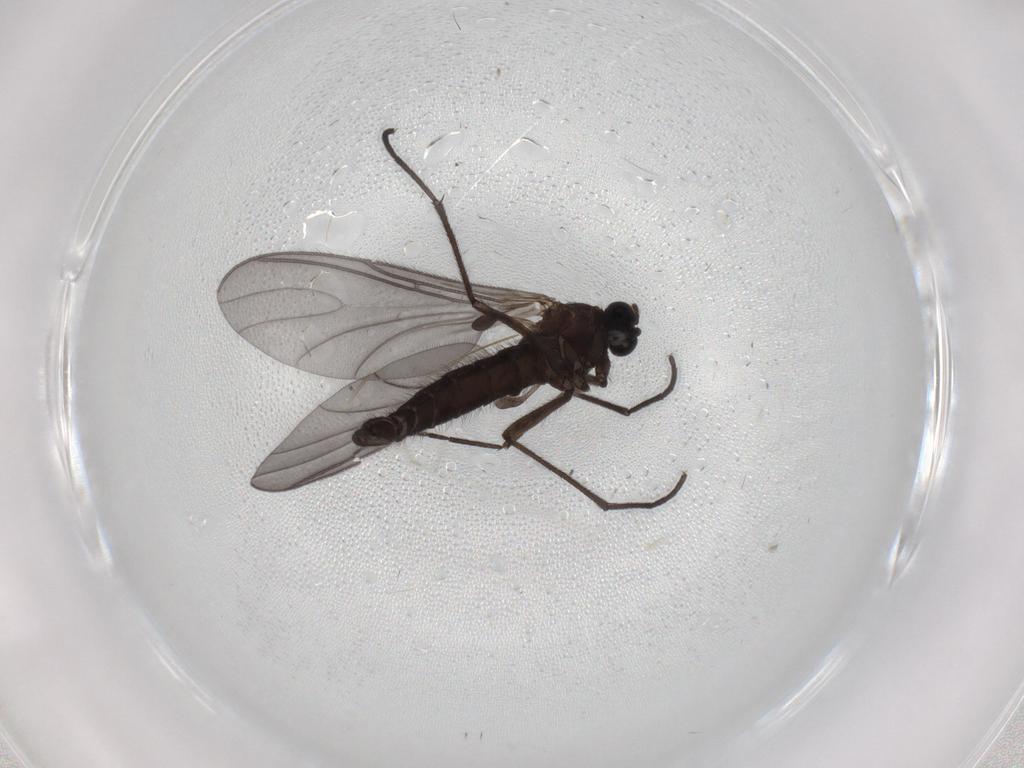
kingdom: Animalia
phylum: Arthropoda
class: Insecta
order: Diptera
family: Sciaridae
